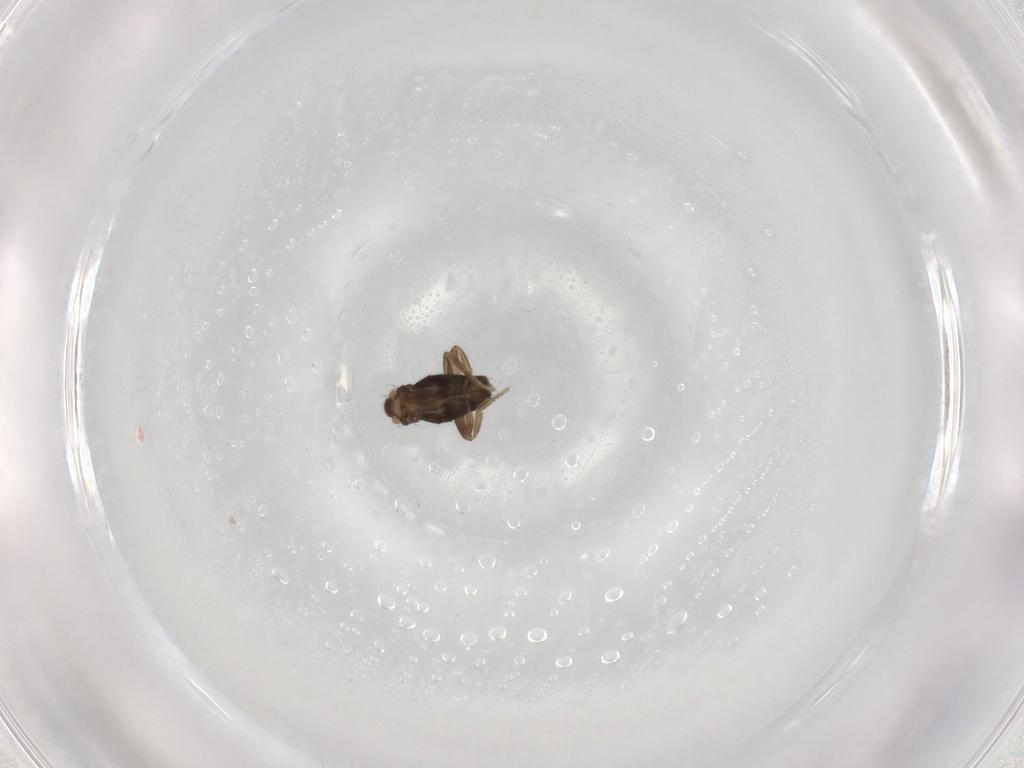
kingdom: Animalia
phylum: Arthropoda
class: Insecta
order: Diptera
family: Phoridae
